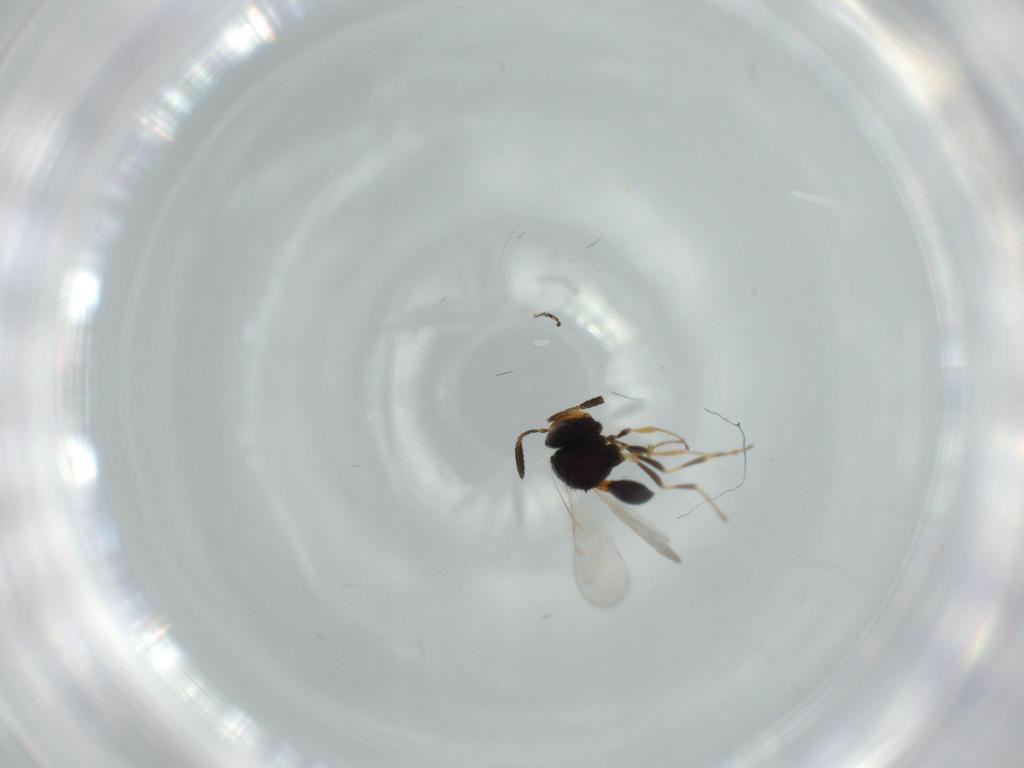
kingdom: Animalia
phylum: Arthropoda
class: Insecta
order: Hymenoptera
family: Scelionidae
